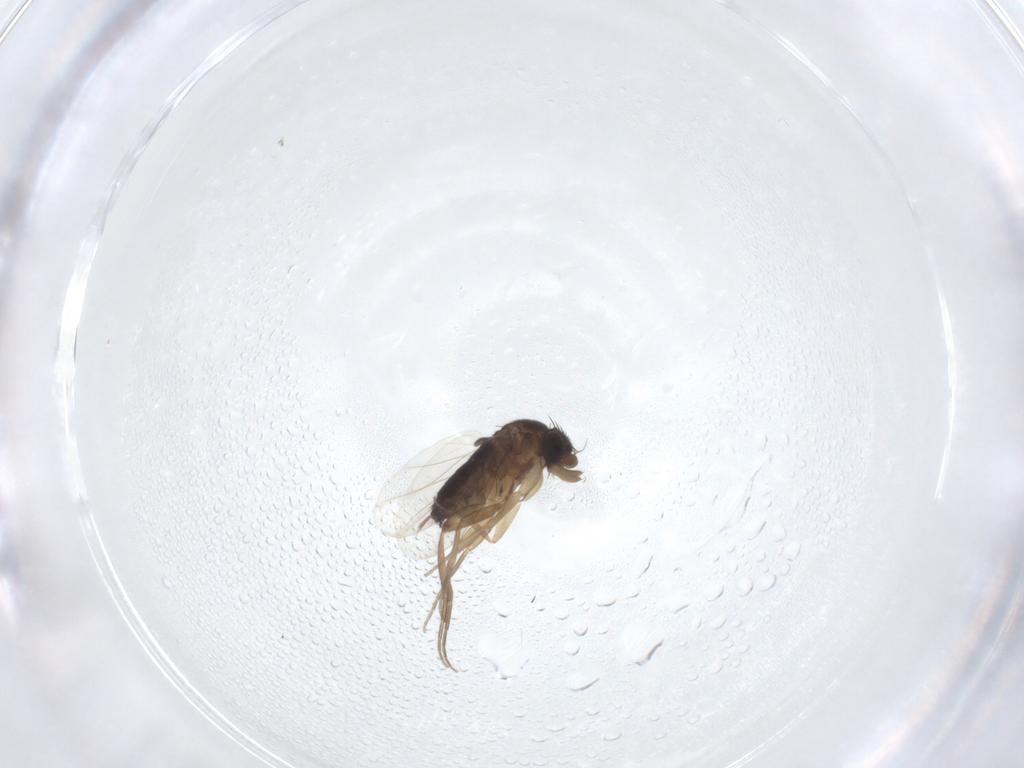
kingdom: Animalia
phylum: Arthropoda
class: Insecta
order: Diptera
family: Phoridae
